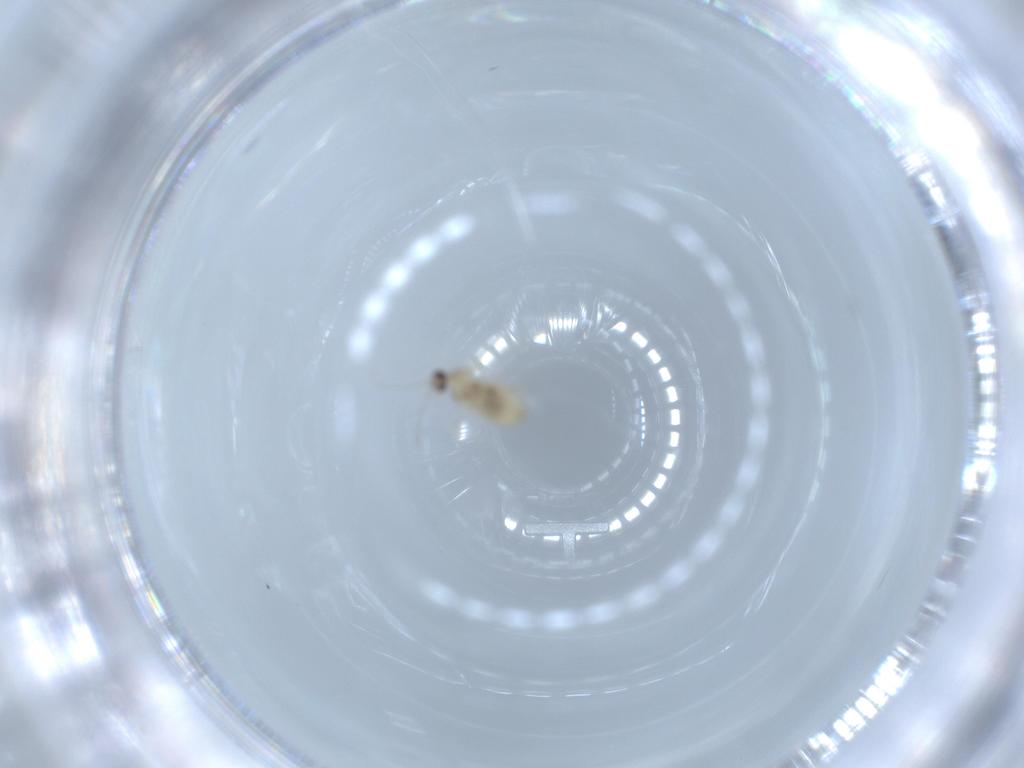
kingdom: Animalia
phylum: Arthropoda
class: Insecta
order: Diptera
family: Cecidomyiidae
